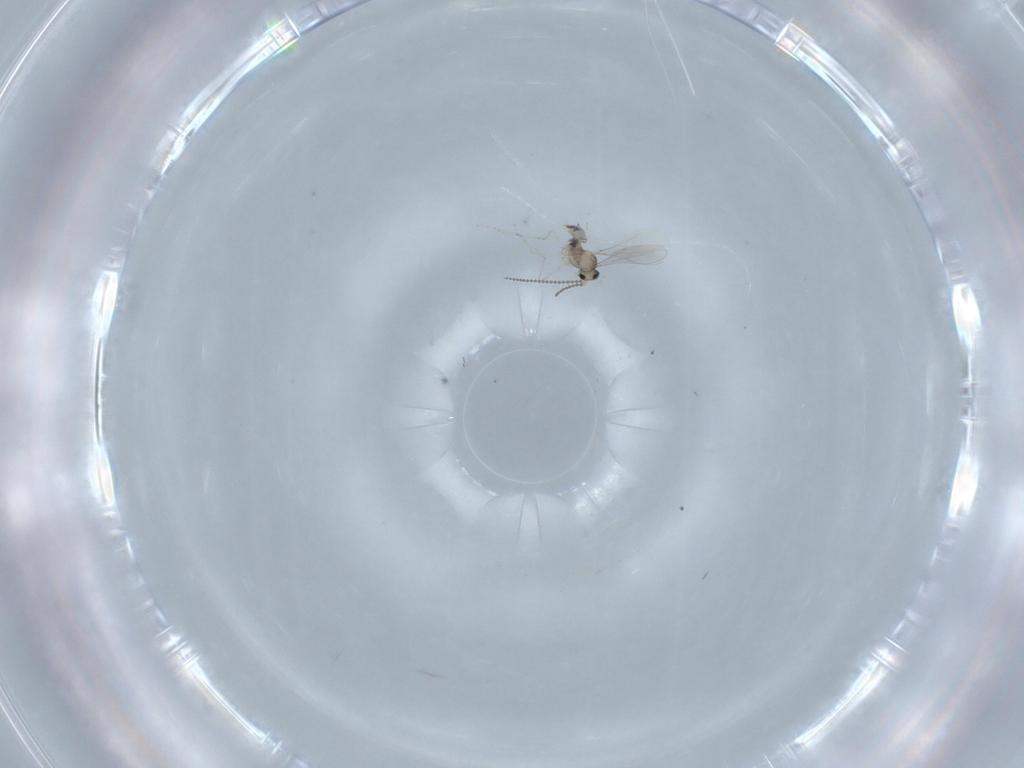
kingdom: Animalia
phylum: Arthropoda
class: Insecta
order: Diptera
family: Cecidomyiidae
